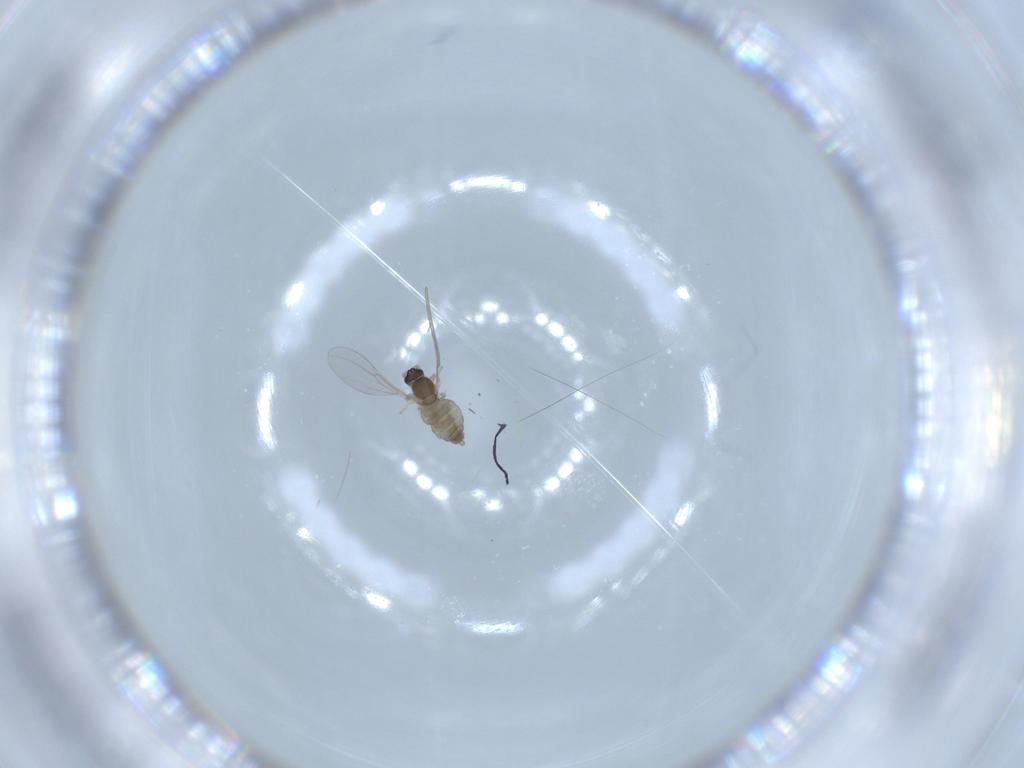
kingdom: Animalia
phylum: Arthropoda
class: Insecta
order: Diptera
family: Cecidomyiidae
